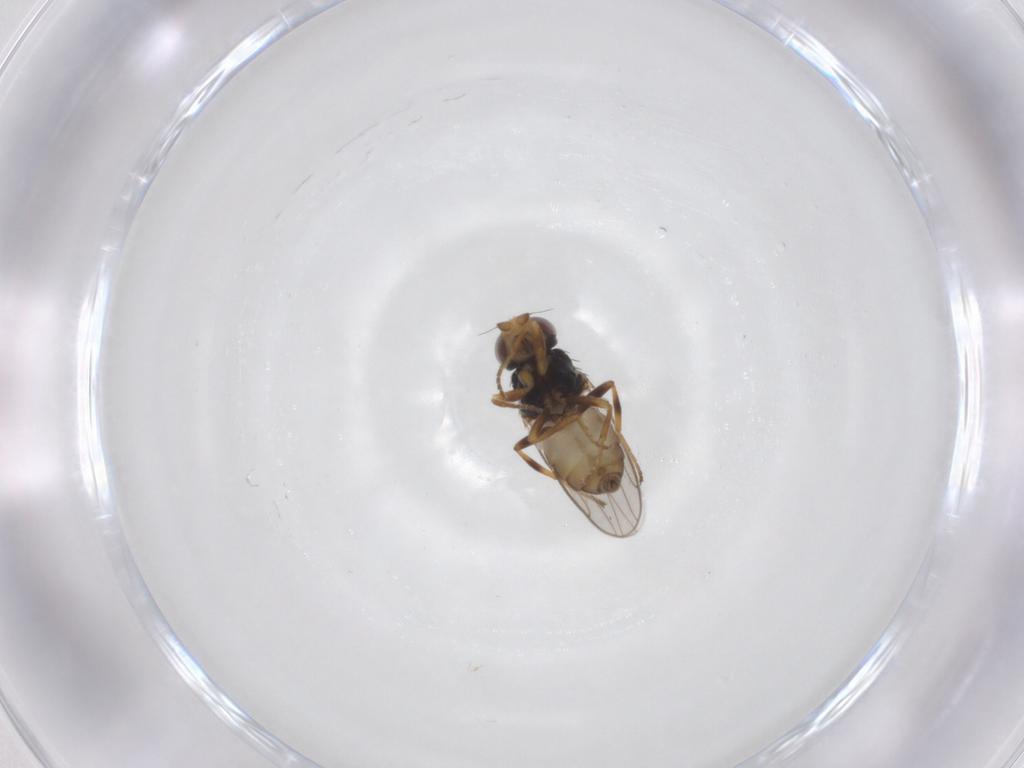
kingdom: Animalia
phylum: Arthropoda
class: Insecta
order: Diptera
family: Chloropidae
